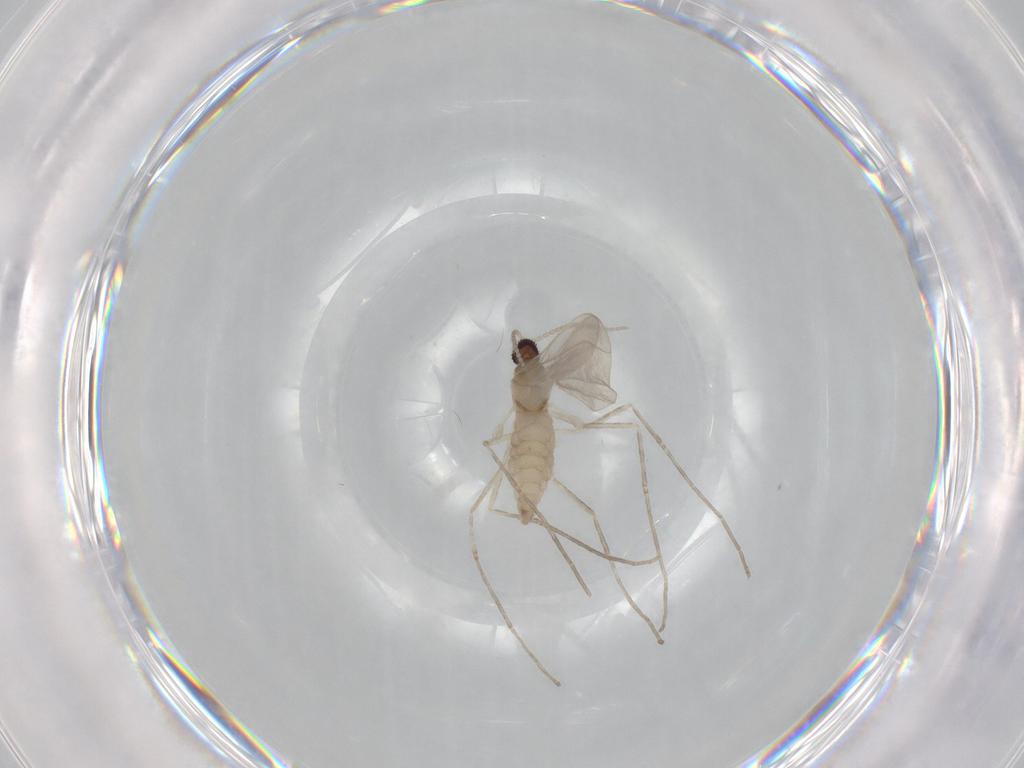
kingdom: Animalia
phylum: Arthropoda
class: Insecta
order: Diptera
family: Cecidomyiidae
